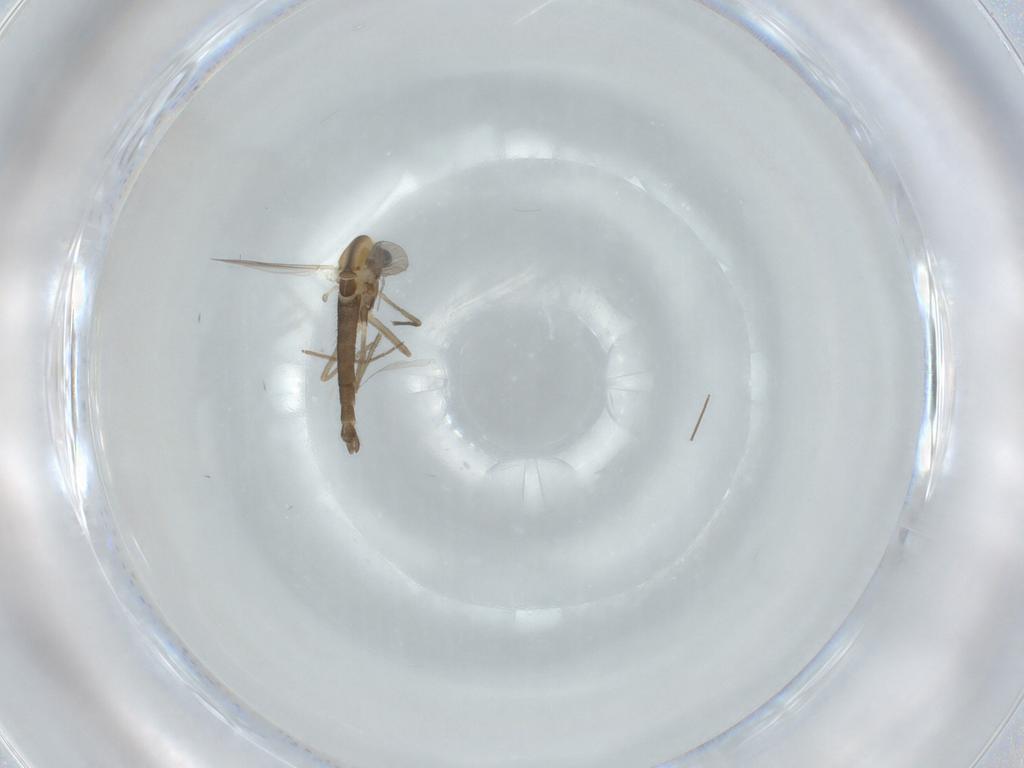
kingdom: Animalia
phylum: Arthropoda
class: Insecta
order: Diptera
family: Chironomidae
